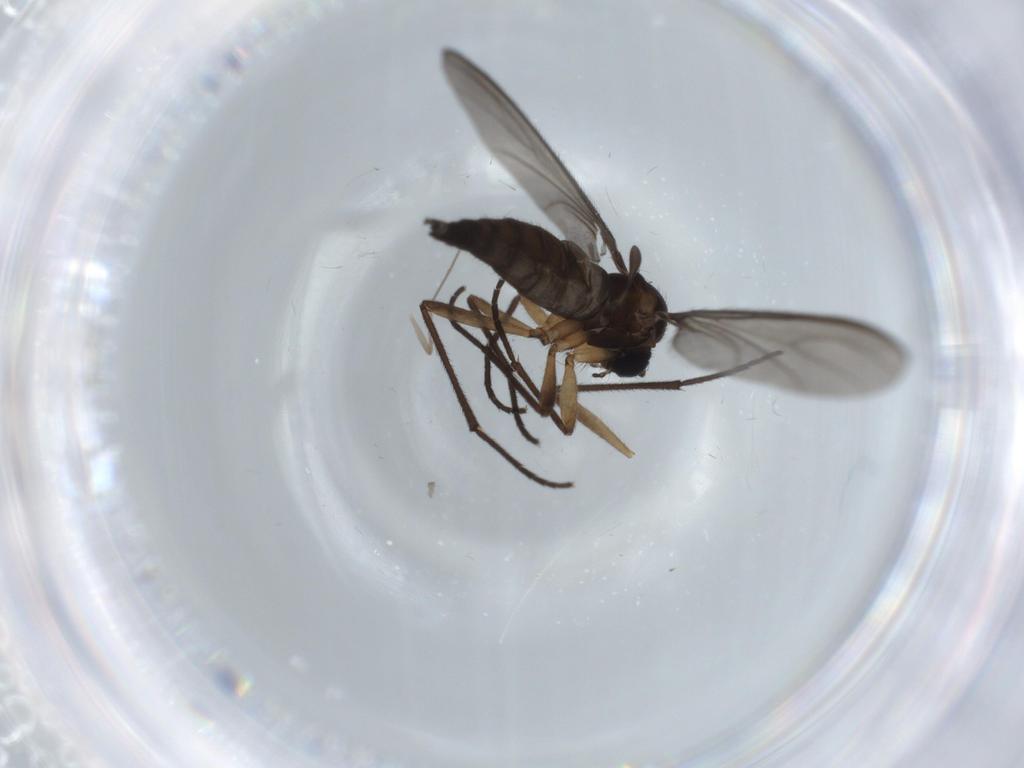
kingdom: Animalia
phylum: Arthropoda
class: Insecta
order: Diptera
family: Sciaridae
